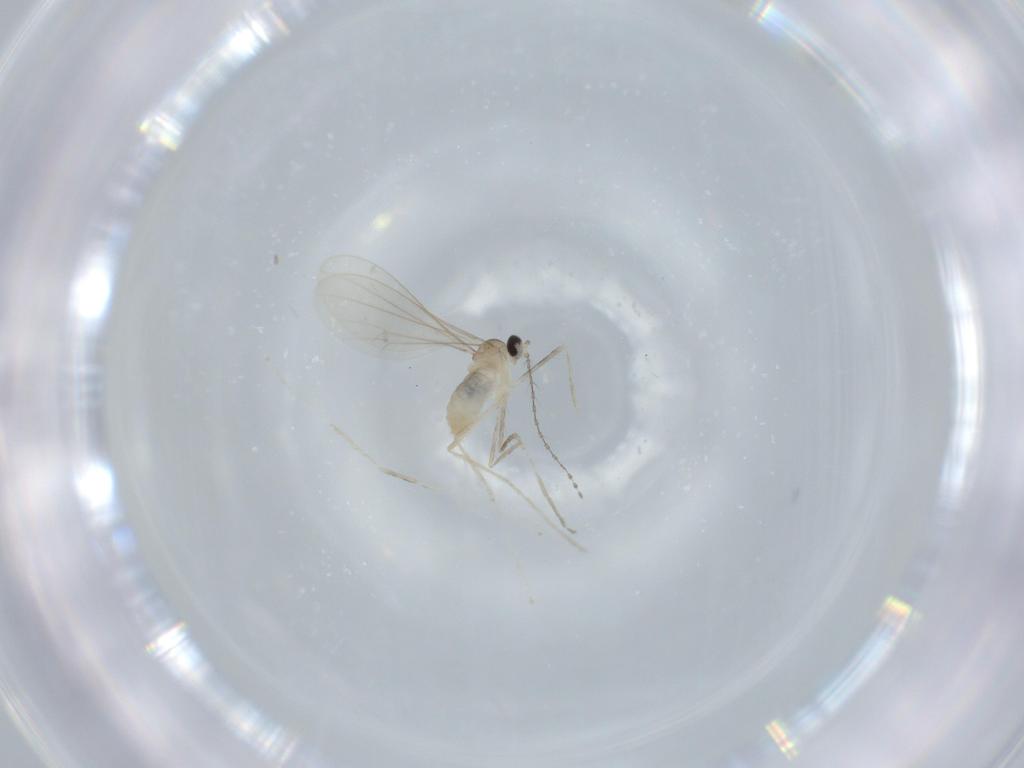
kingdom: Animalia
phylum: Arthropoda
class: Insecta
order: Diptera
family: Cecidomyiidae
